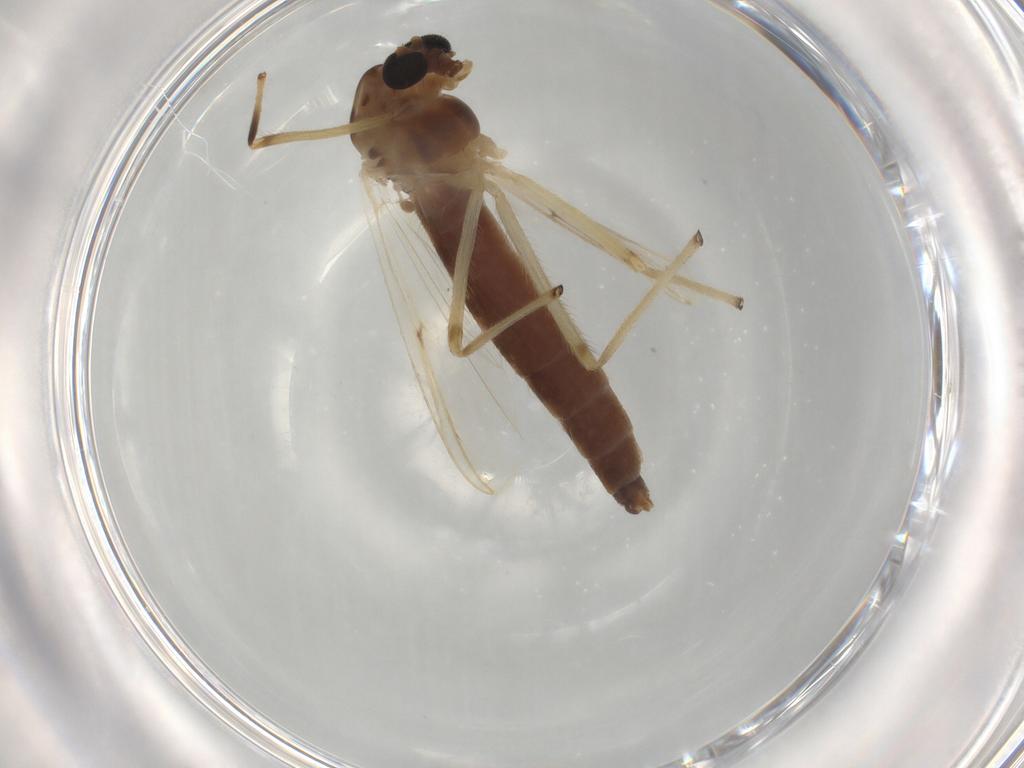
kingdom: Animalia
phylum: Arthropoda
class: Insecta
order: Diptera
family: Chironomidae
